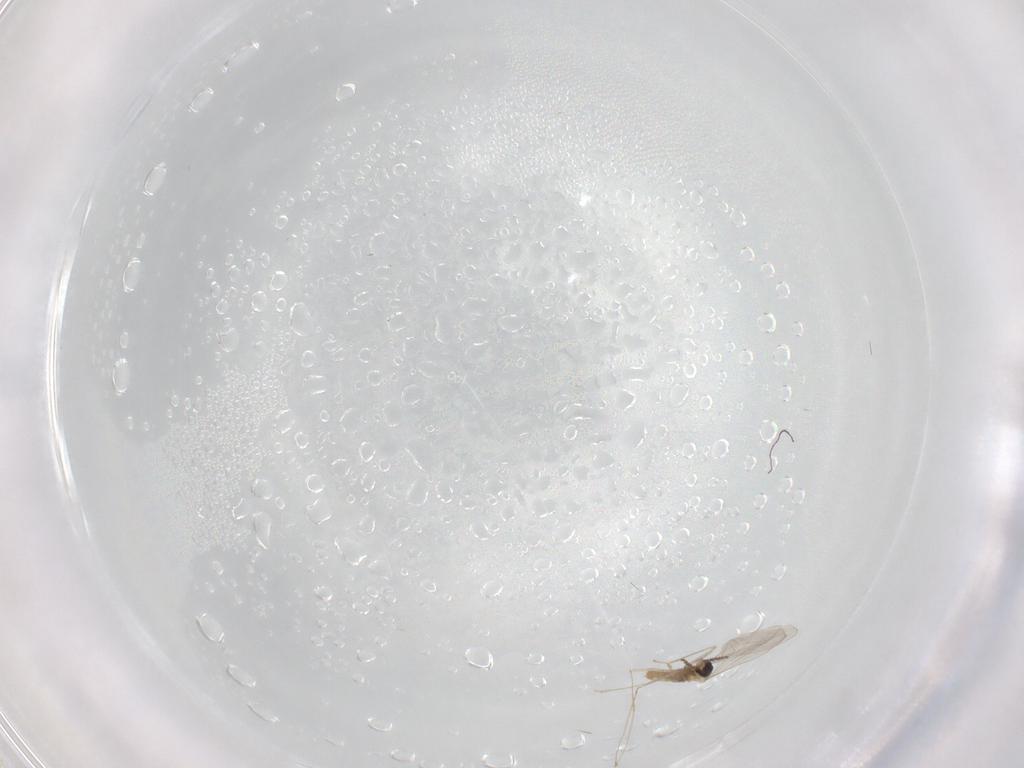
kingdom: Animalia
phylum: Arthropoda
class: Insecta
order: Diptera
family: Cecidomyiidae
